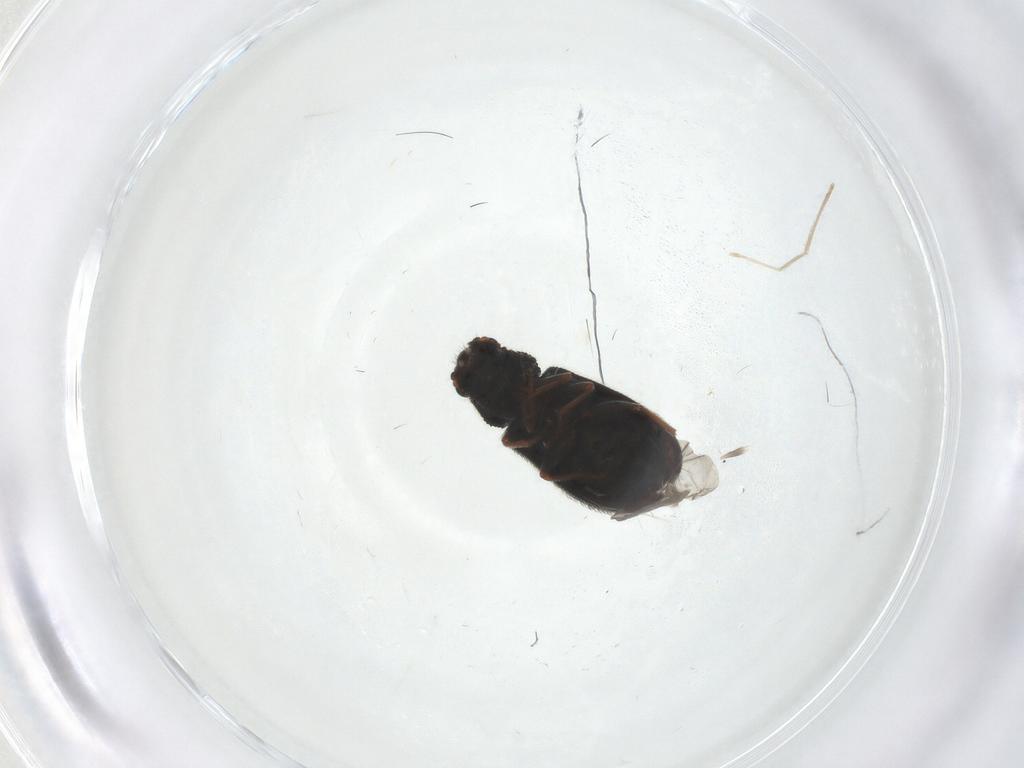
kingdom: Animalia
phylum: Arthropoda
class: Insecta
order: Coleoptera
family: Melyridae
